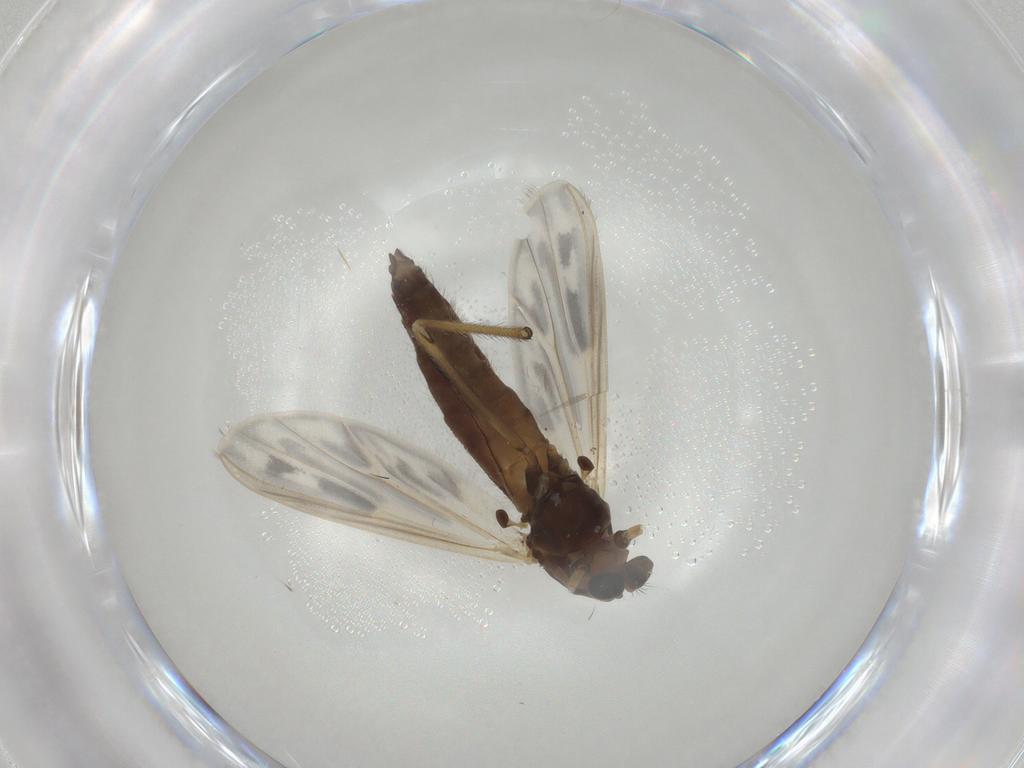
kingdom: Animalia
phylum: Arthropoda
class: Insecta
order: Diptera
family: Chironomidae
